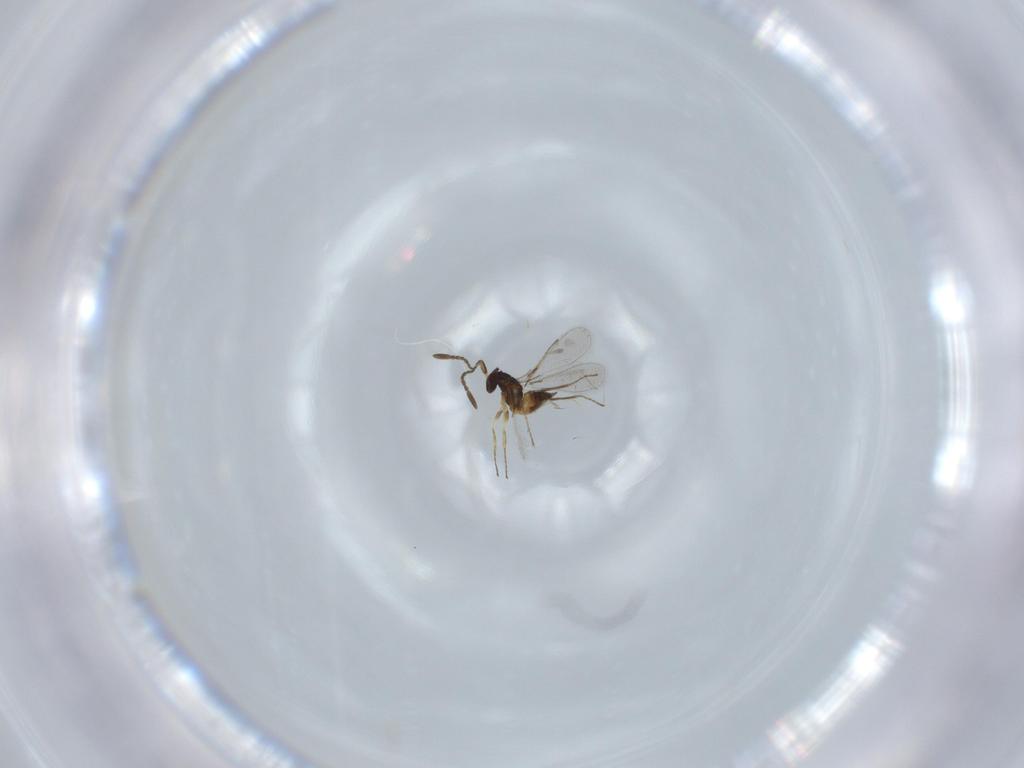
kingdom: Animalia
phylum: Arthropoda
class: Insecta
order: Hymenoptera
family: Mymaridae
